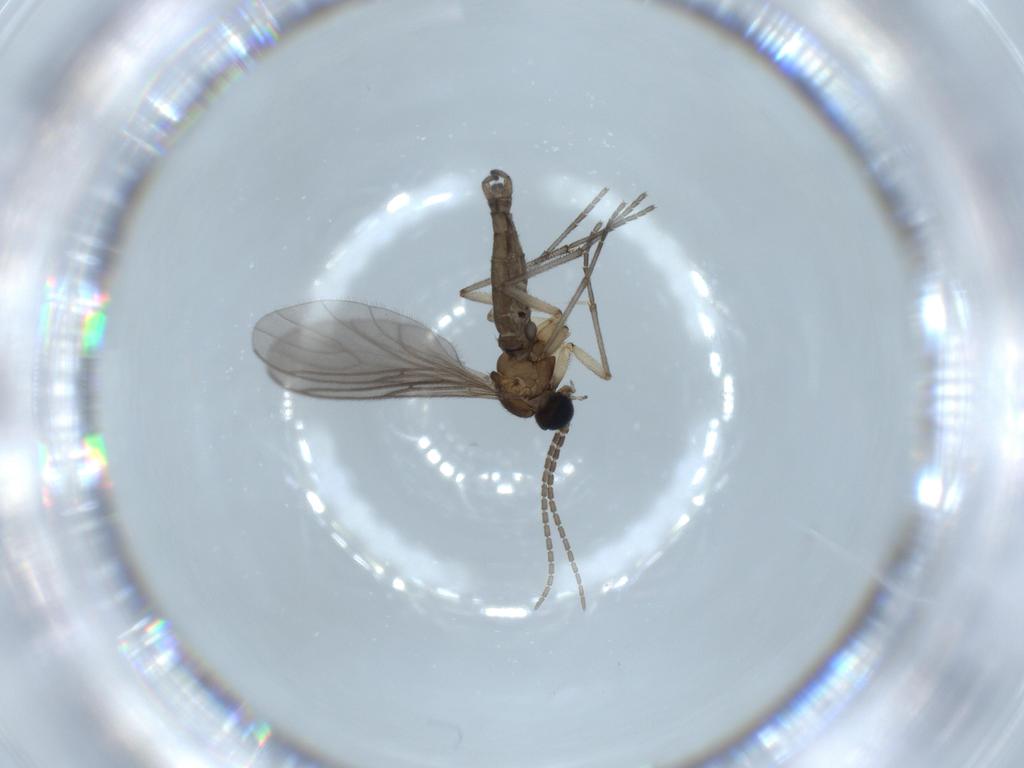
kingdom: Animalia
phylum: Arthropoda
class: Insecta
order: Diptera
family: Sciaridae
